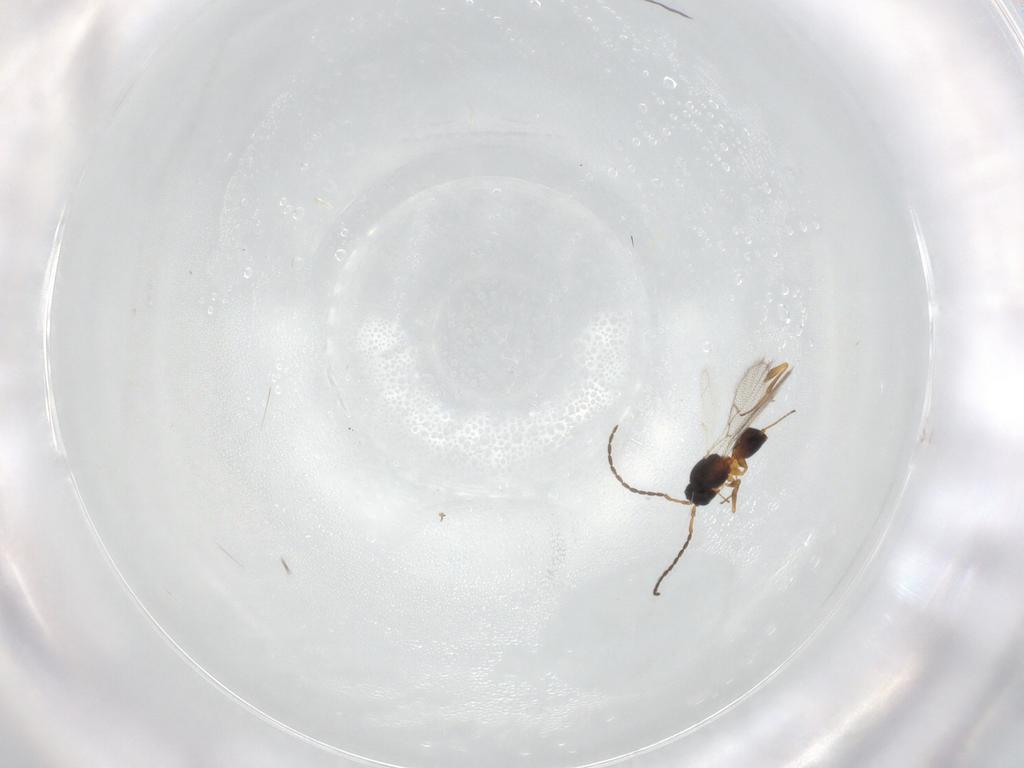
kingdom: Animalia
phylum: Arthropoda
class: Insecta
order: Hymenoptera
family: Figitidae
